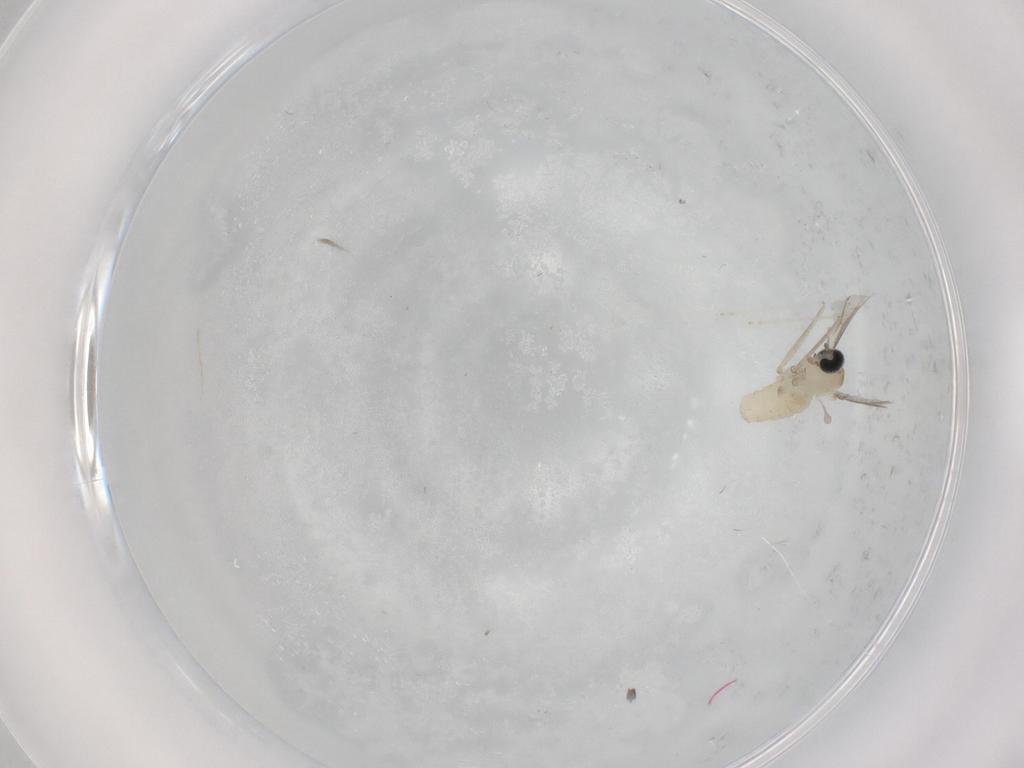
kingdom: Animalia
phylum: Arthropoda
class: Insecta
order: Diptera
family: Cecidomyiidae
